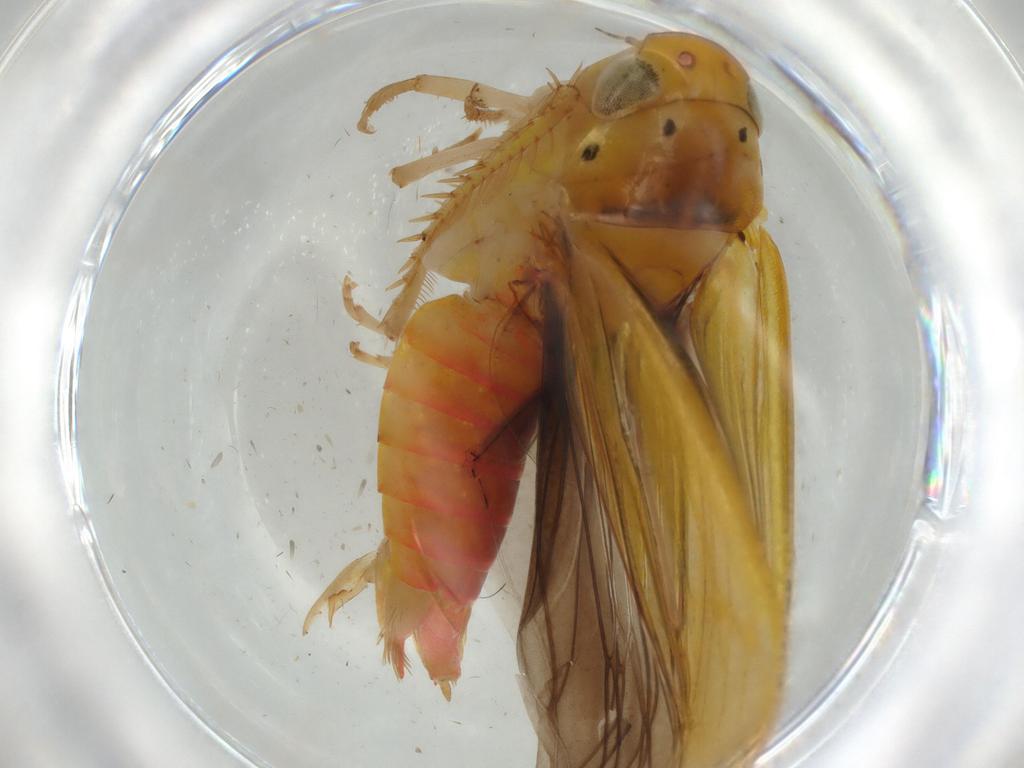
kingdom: Animalia
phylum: Arthropoda
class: Insecta
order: Hemiptera
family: Cicadellidae
